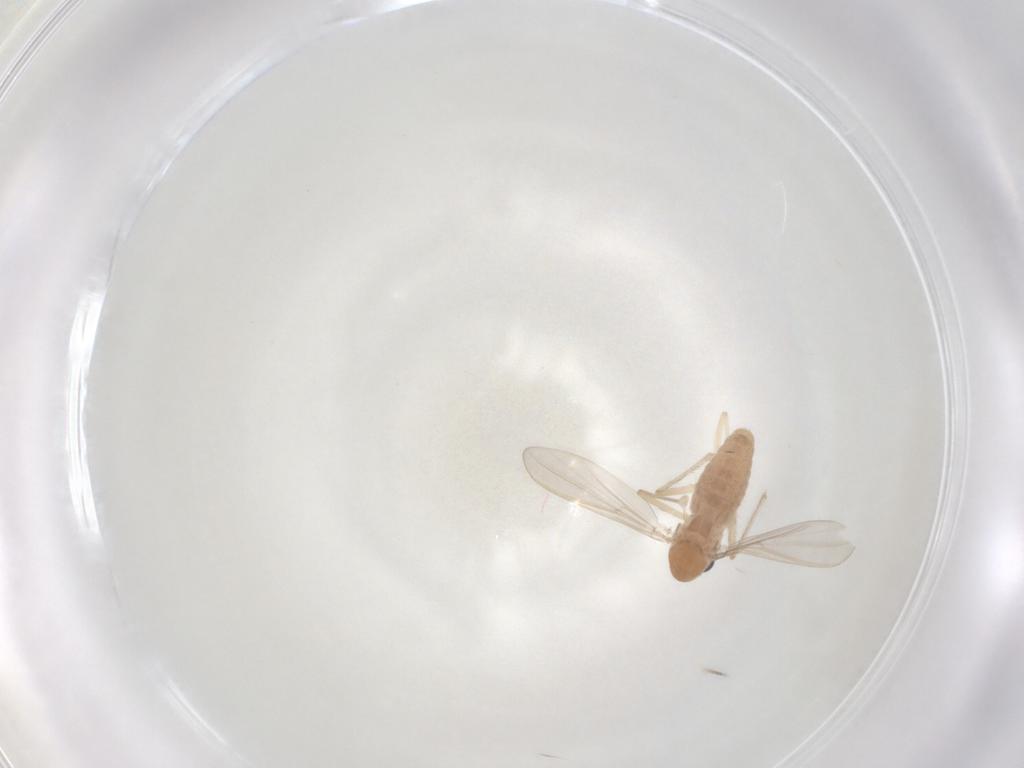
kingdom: Animalia
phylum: Arthropoda
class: Insecta
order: Diptera
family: Chironomidae
